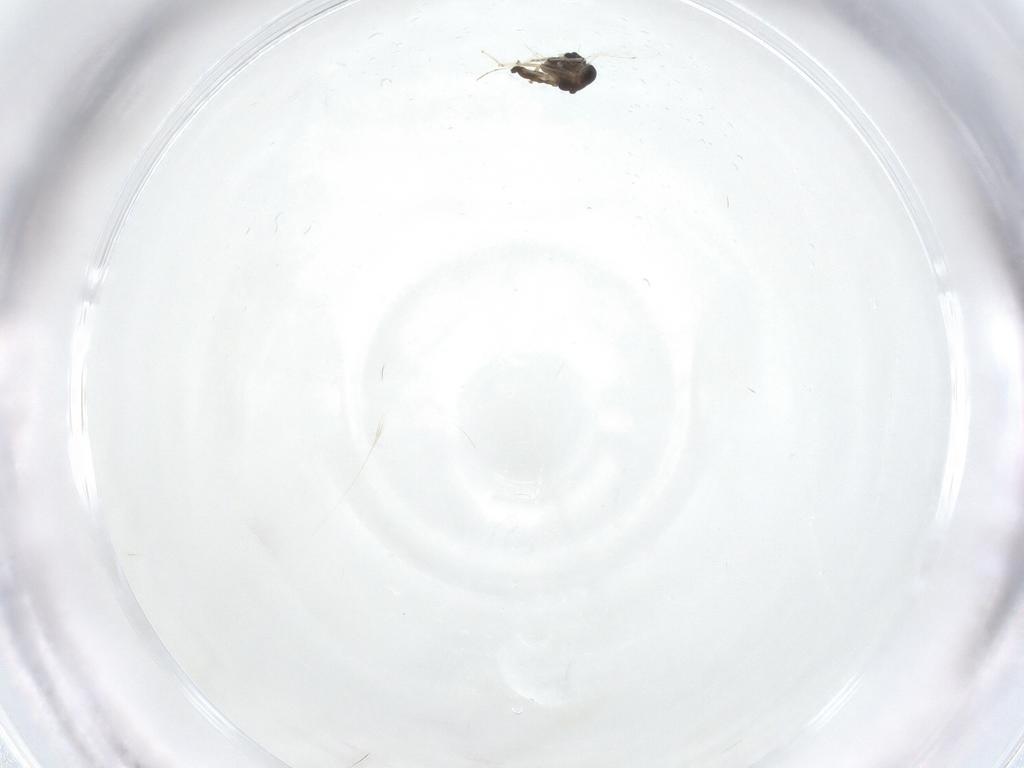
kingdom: Animalia
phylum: Arthropoda
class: Insecta
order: Diptera
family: Chironomidae
